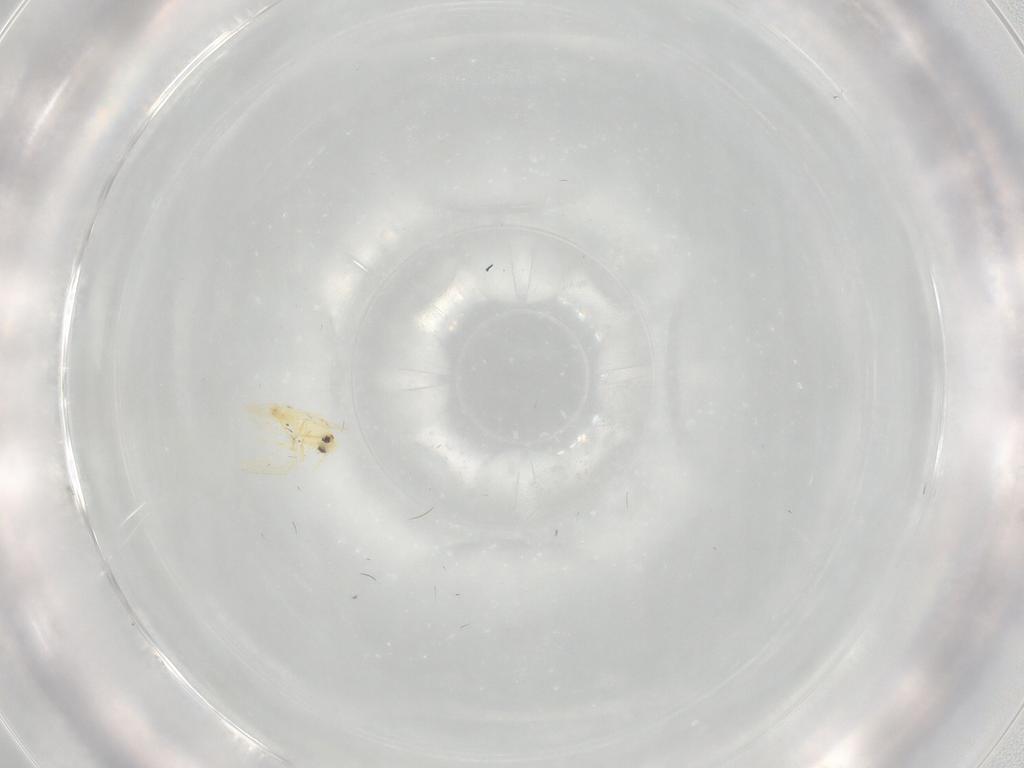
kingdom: Animalia
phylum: Arthropoda
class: Insecta
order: Hemiptera
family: Aleyrodidae
